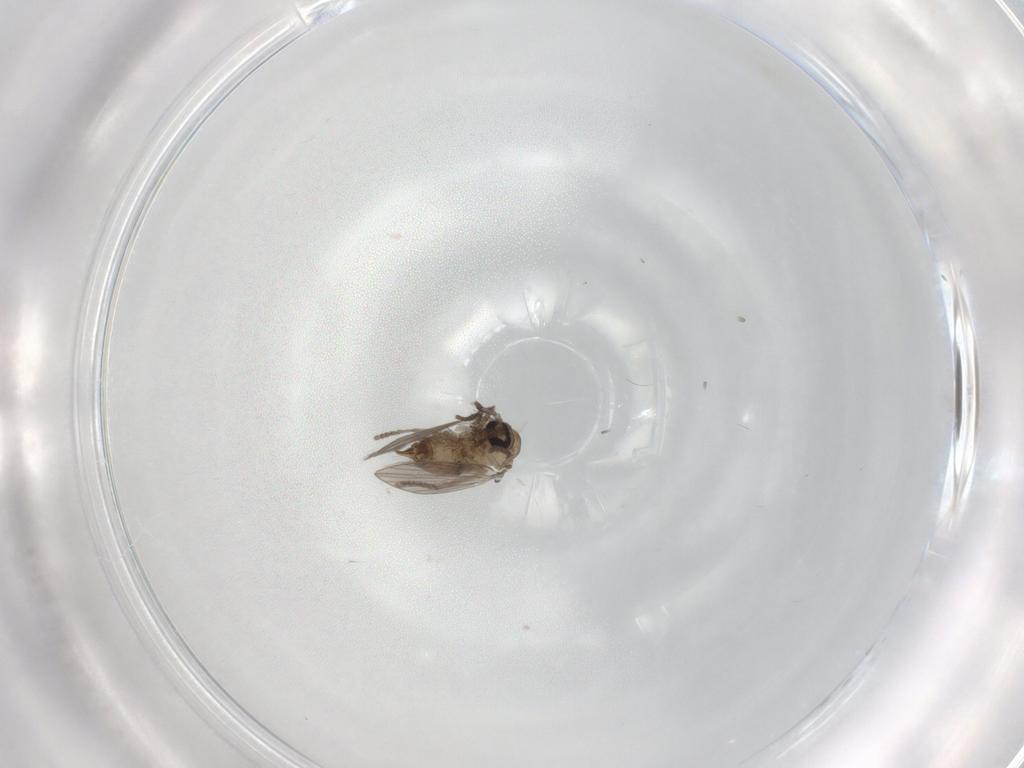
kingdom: Animalia
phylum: Arthropoda
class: Insecta
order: Diptera
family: Psychodidae
